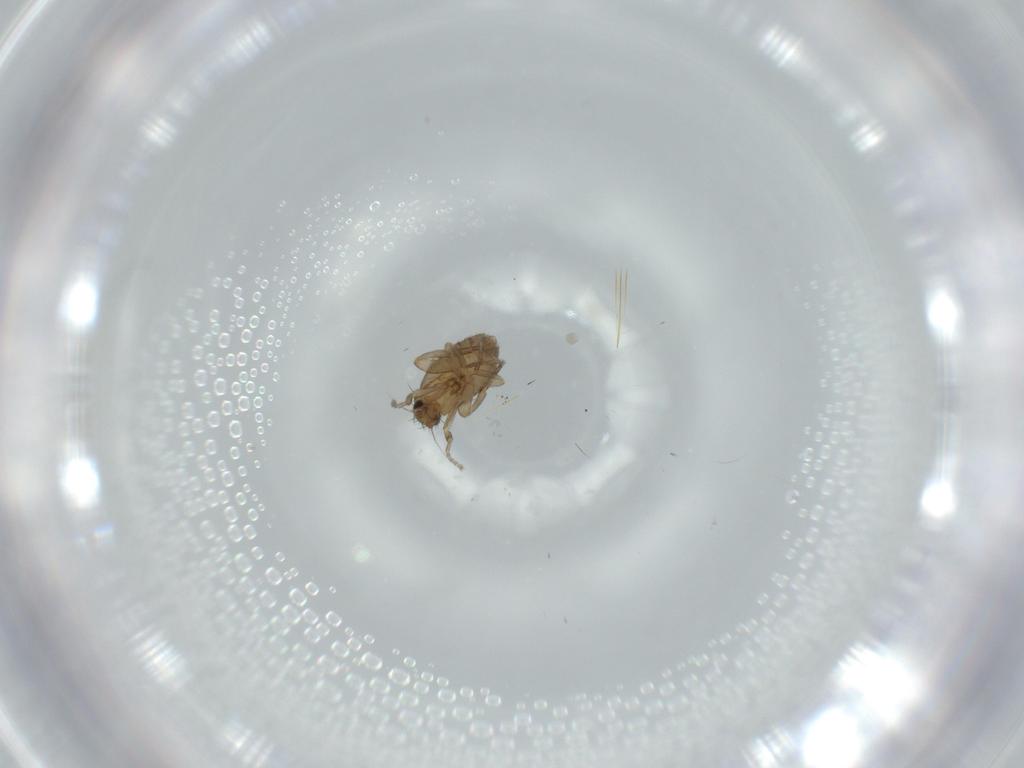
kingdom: Animalia
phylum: Arthropoda
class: Insecta
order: Diptera
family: Cecidomyiidae
